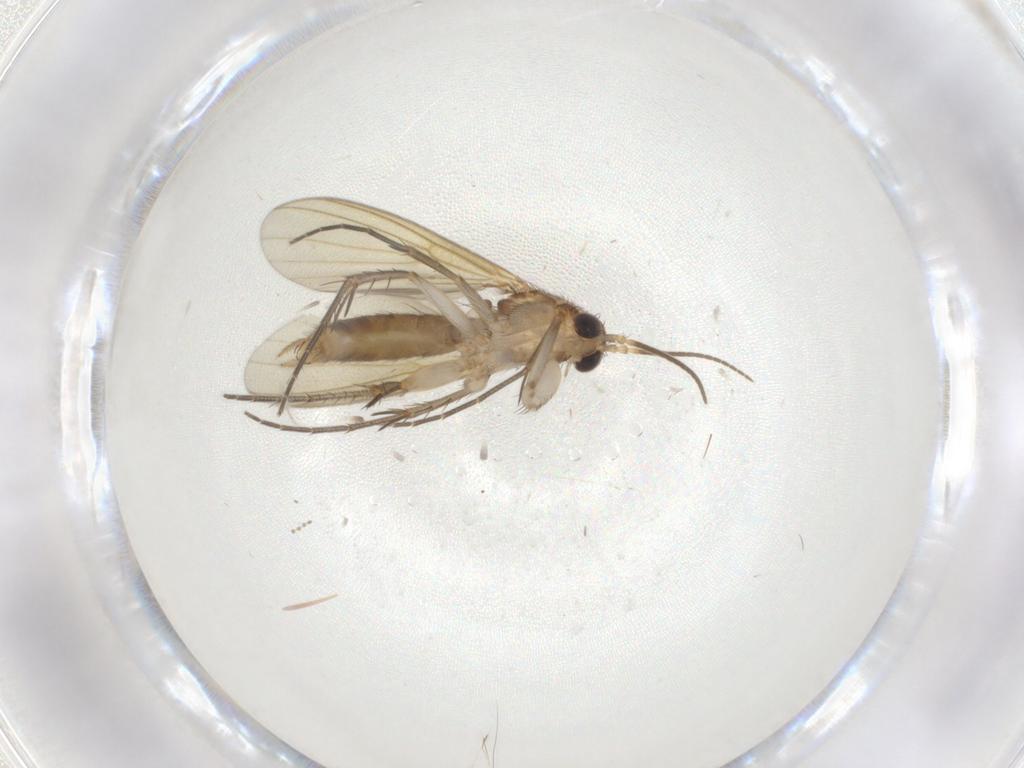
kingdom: Animalia
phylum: Arthropoda
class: Insecta
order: Diptera
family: Mycetophilidae
